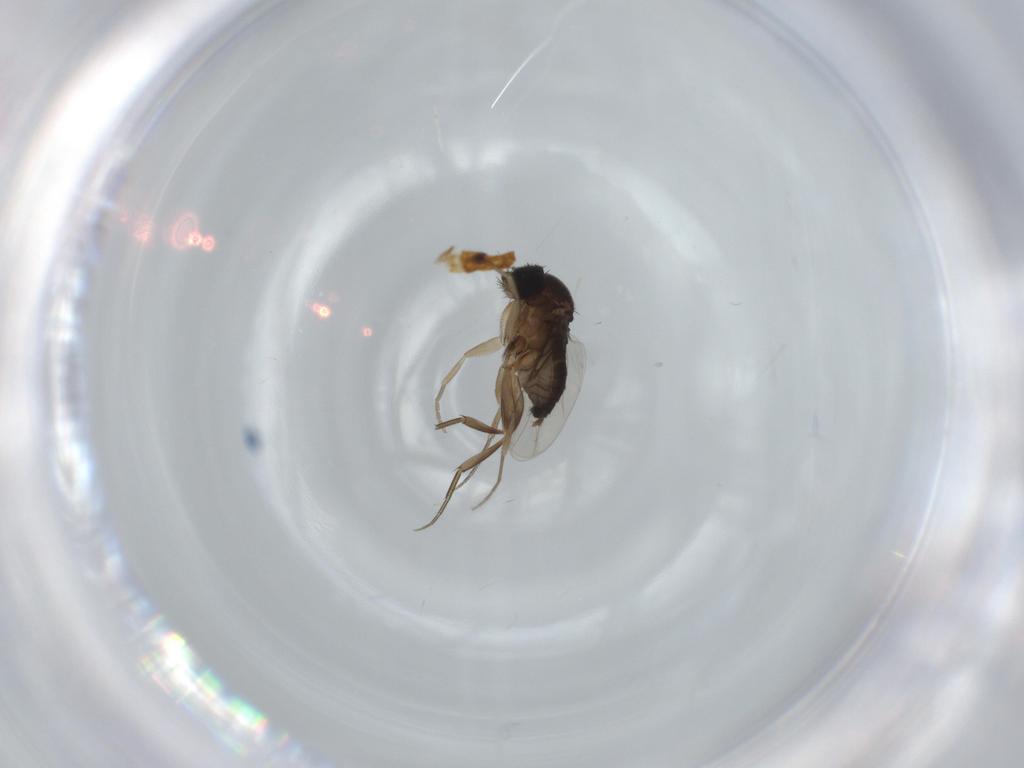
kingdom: Animalia
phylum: Arthropoda
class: Insecta
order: Diptera
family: Phoridae
